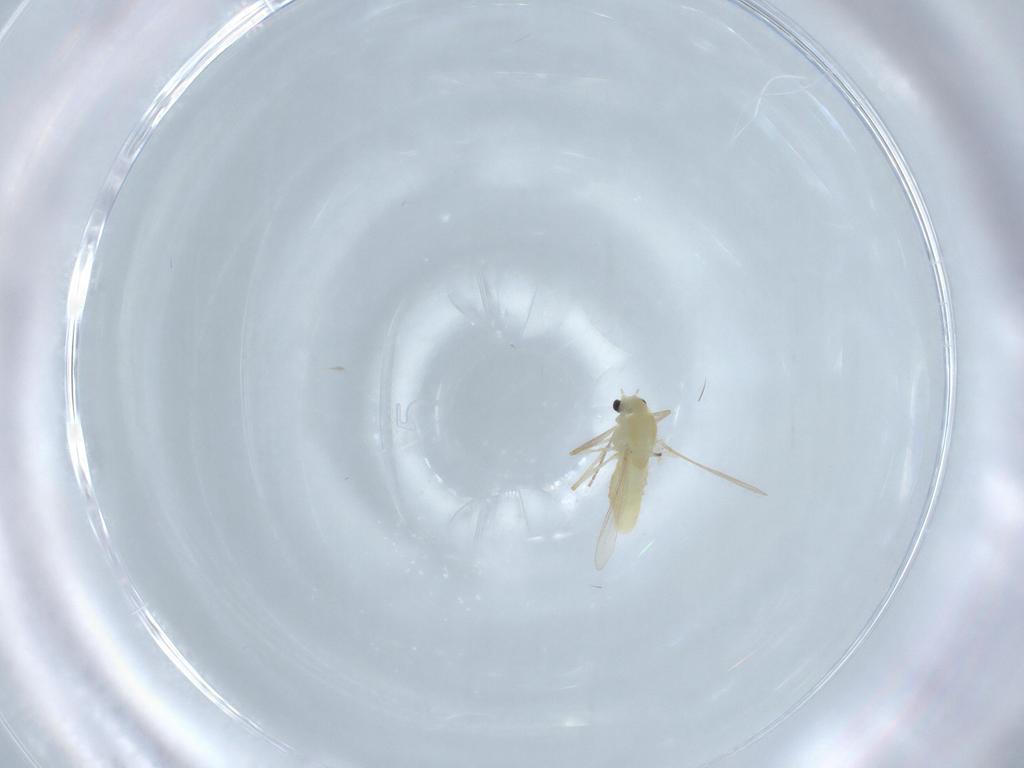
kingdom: Animalia
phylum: Arthropoda
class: Insecta
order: Diptera
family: Chironomidae
